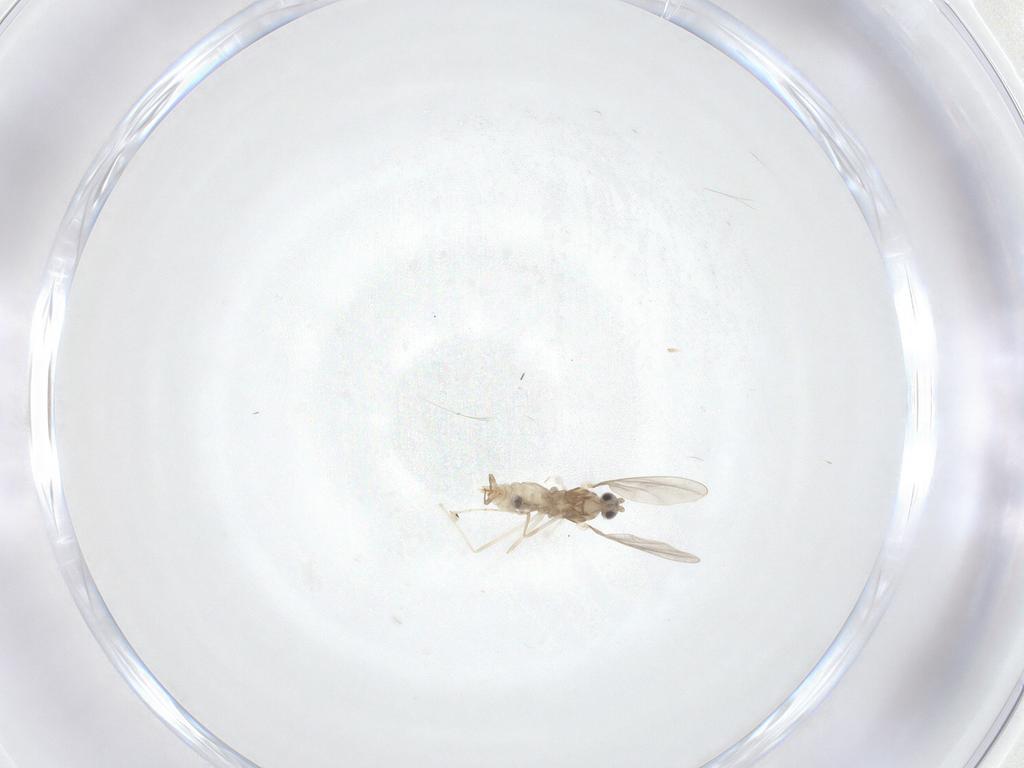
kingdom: Animalia
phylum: Arthropoda
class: Insecta
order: Diptera
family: Cecidomyiidae
